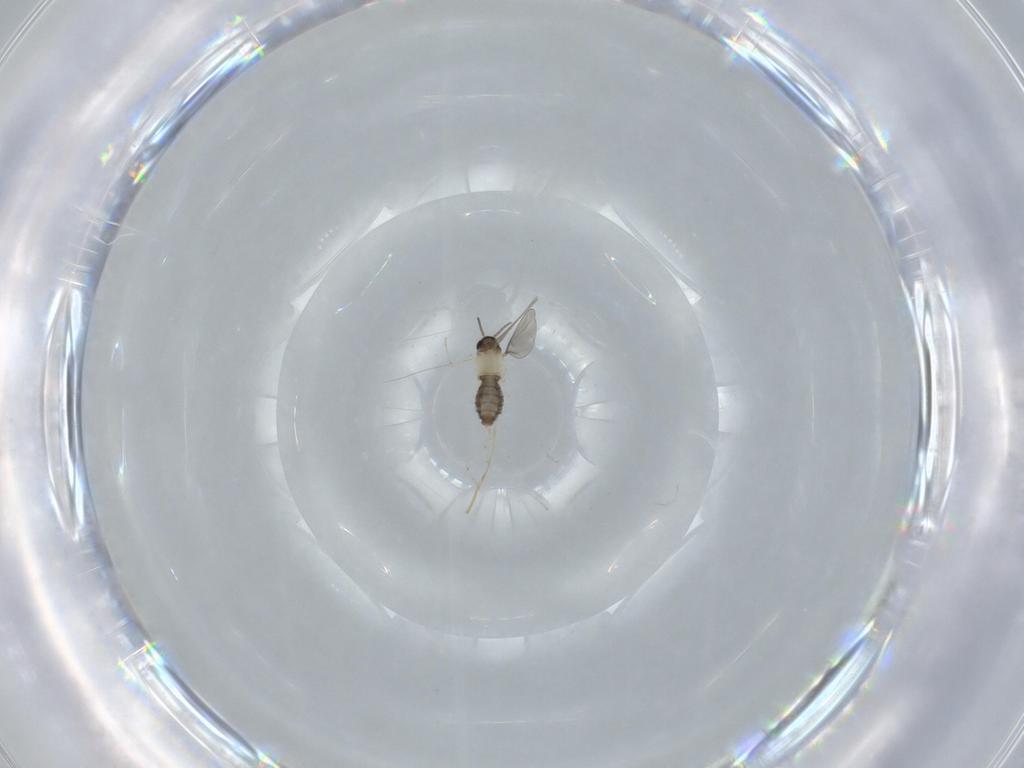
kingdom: Animalia
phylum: Arthropoda
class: Insecta
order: Diptera
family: Cecidomyiidae
